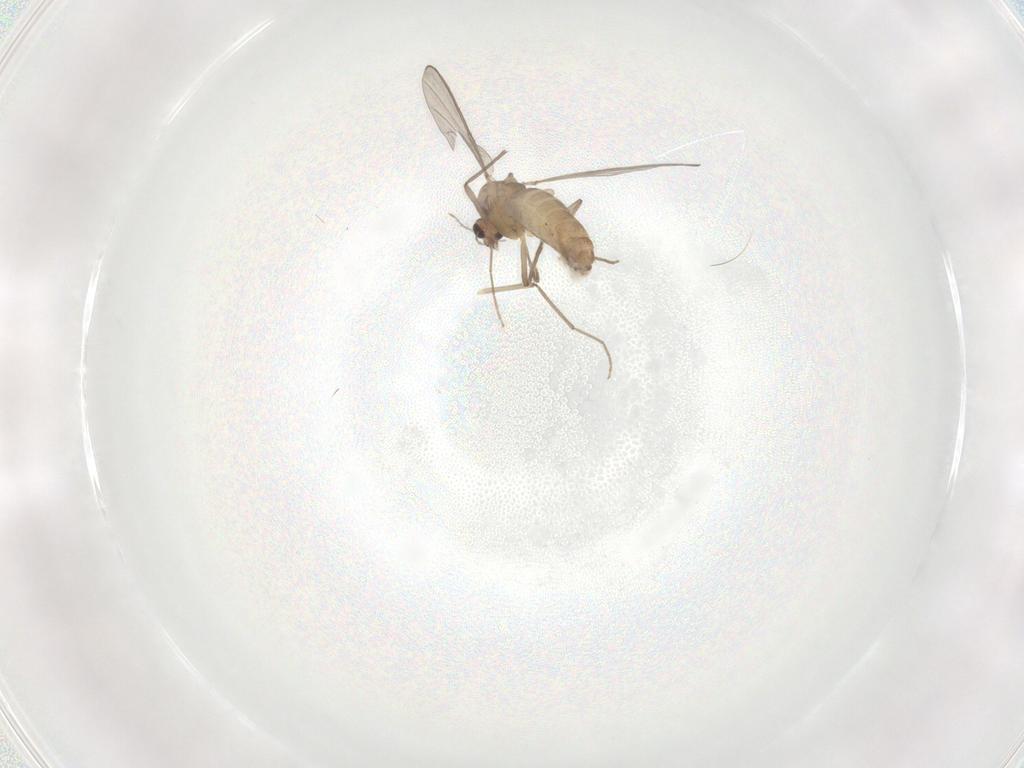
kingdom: Animalia
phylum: Arthropoda
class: Insecta
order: Diptera
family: Chironomidae
